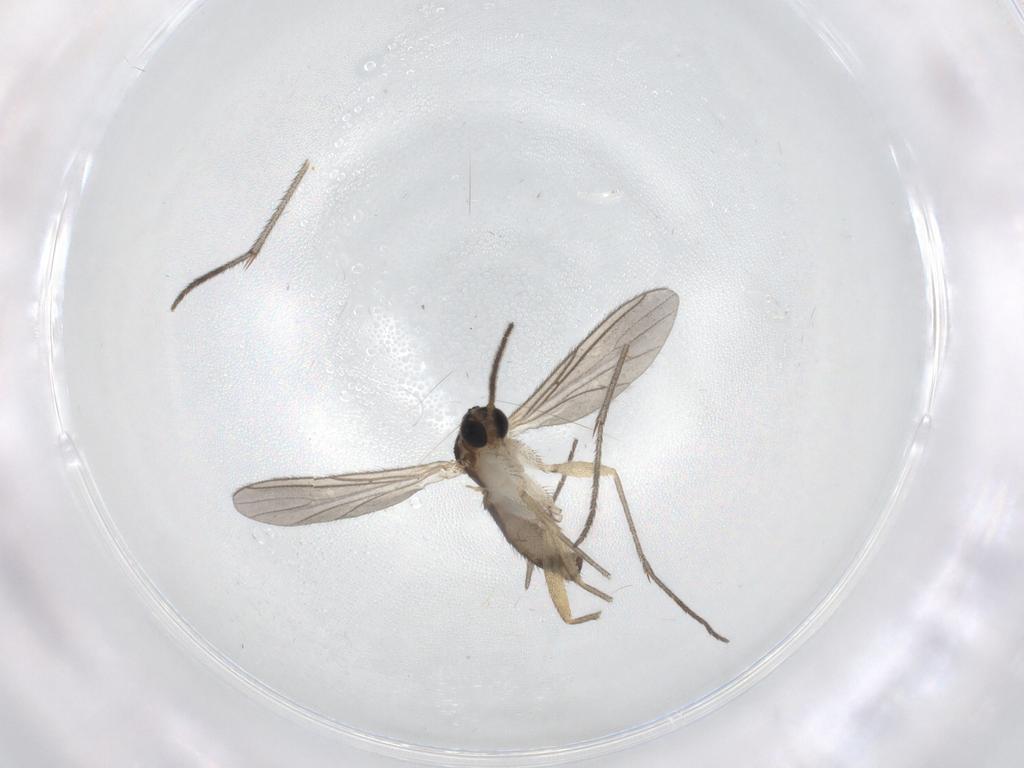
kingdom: Animalia
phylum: Arthropoda
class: Insecta
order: Diptera
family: Sciaridae
